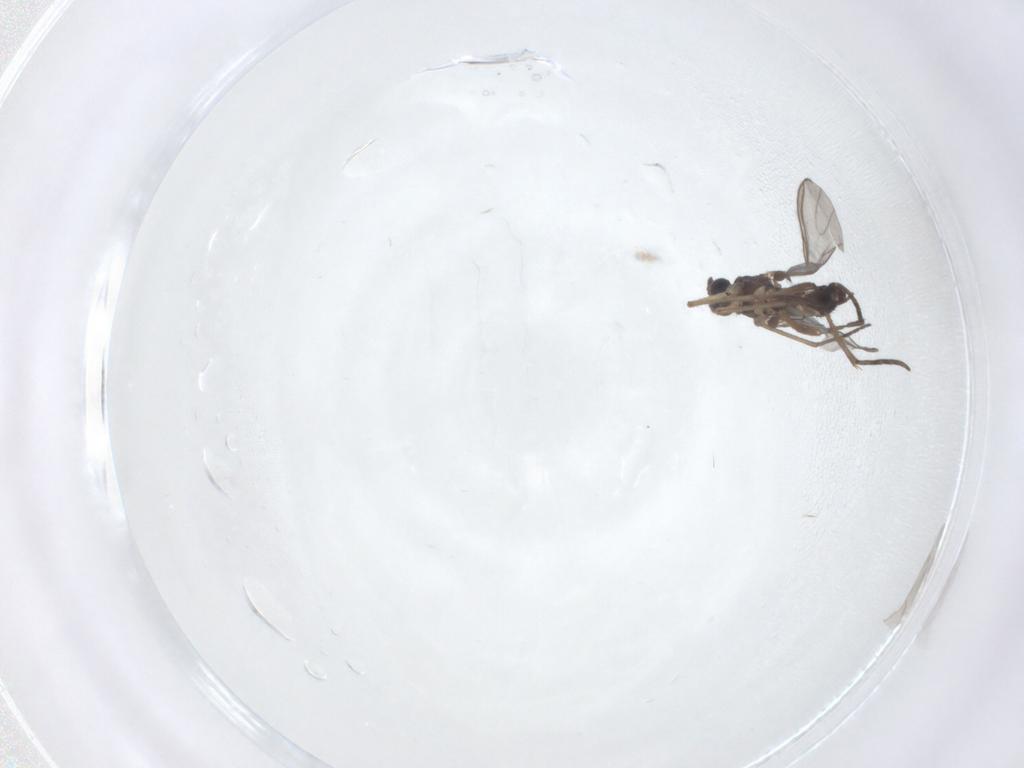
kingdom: Animalia
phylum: Arthropoda
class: Insecta
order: Diptera
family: Sciaridae
